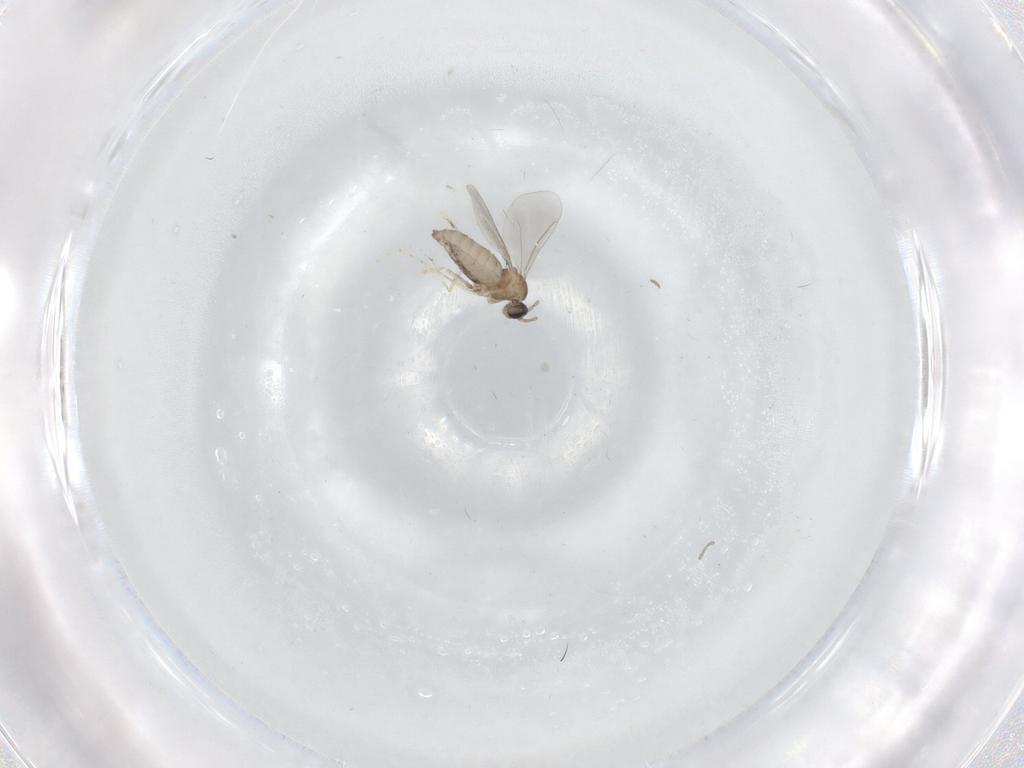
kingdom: Animalia
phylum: Arthropoda
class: Insecta
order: Diptera
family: Cecidomyiidae
